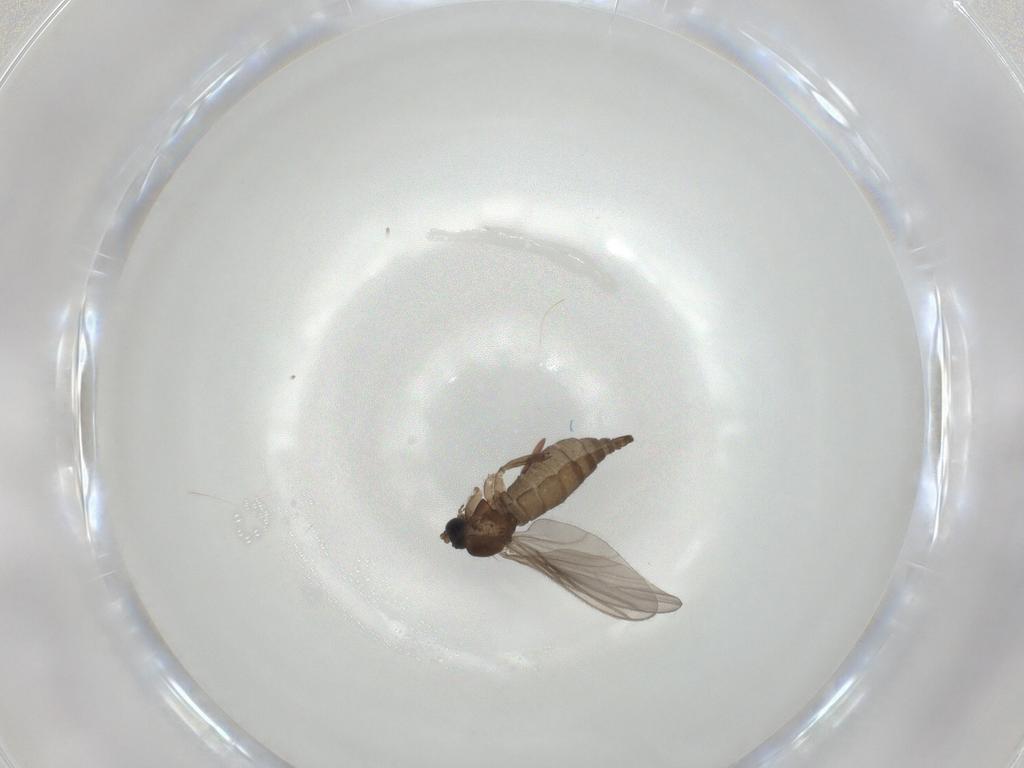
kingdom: Animalia
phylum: Arthropoda
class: Insecta
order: Diptera
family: Sciaridae
